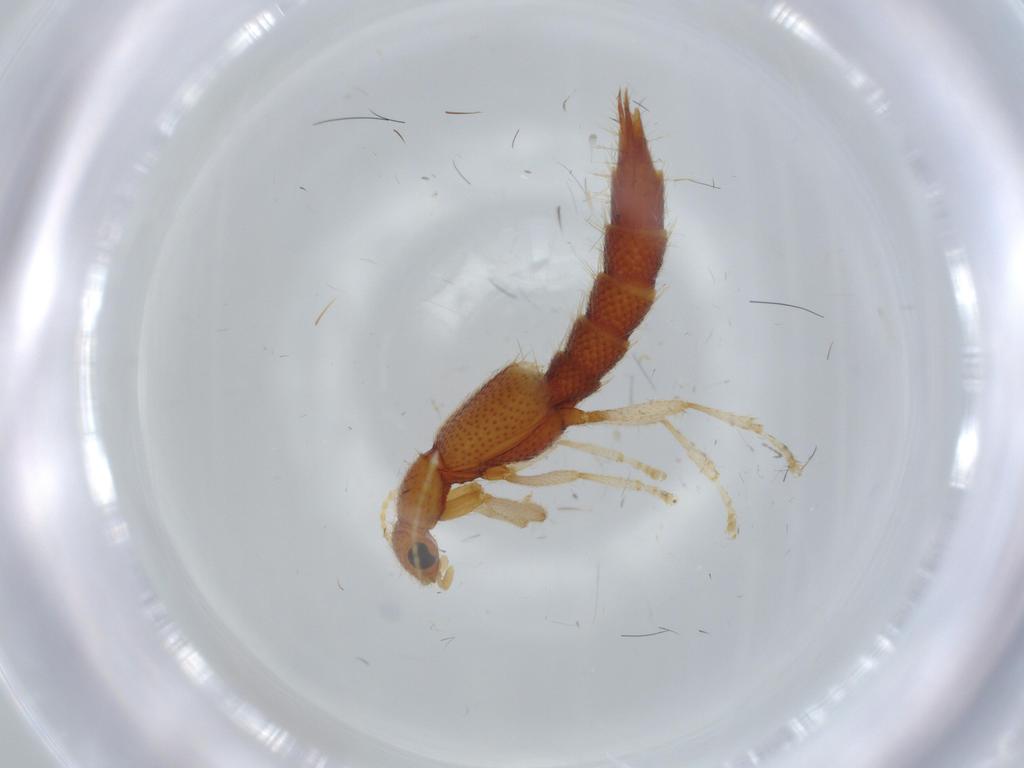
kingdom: Animalia
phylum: Arthropoda
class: Insecta
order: Coleoptera
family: Staphylinidae
